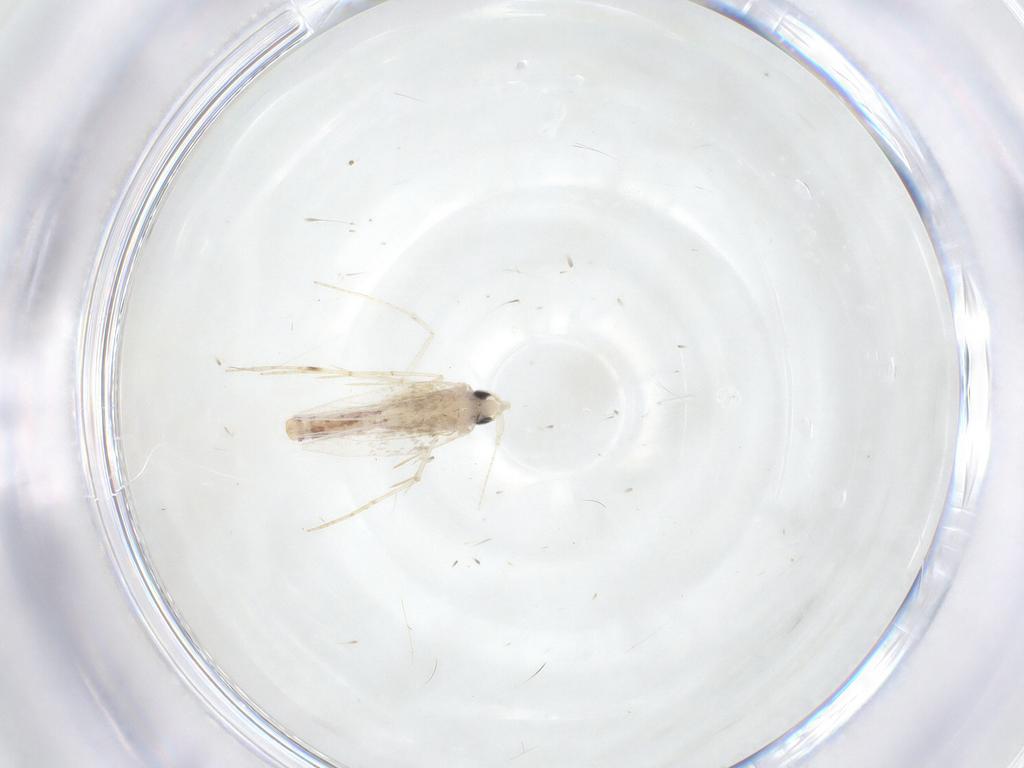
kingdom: Animalia
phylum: Arthropoda
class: Insecta
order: Lepidoptera
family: Tineidae
